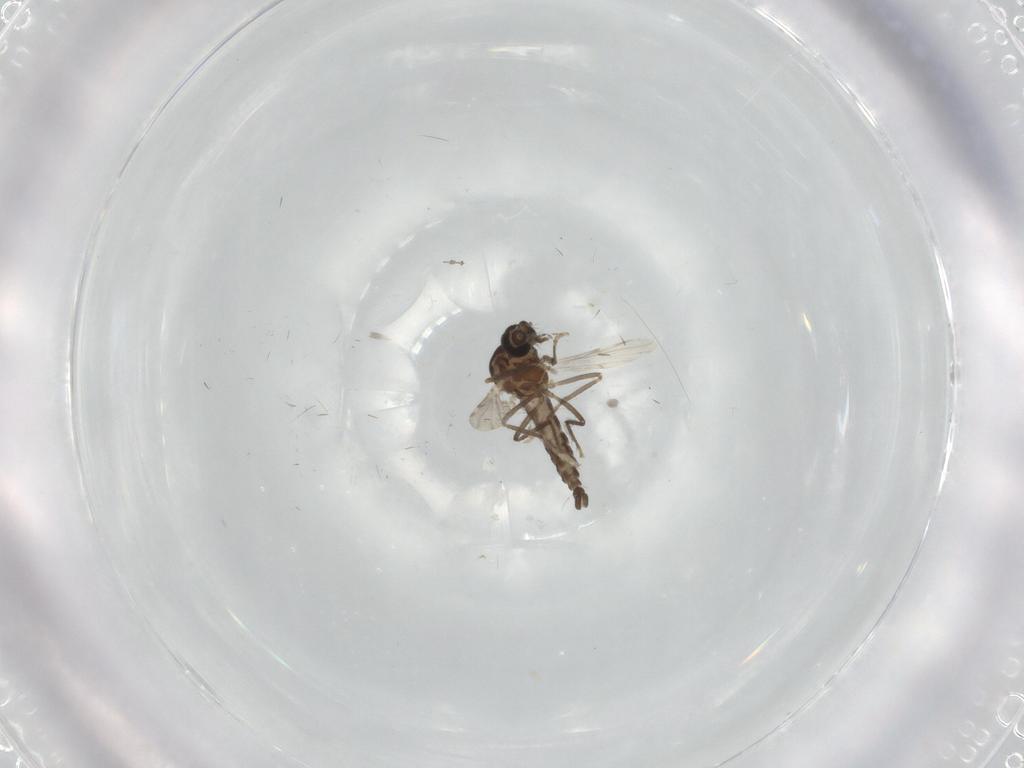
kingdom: Animalia
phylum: Arthropoda
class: Insecta
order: Diptera
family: Ceratopogonidae
